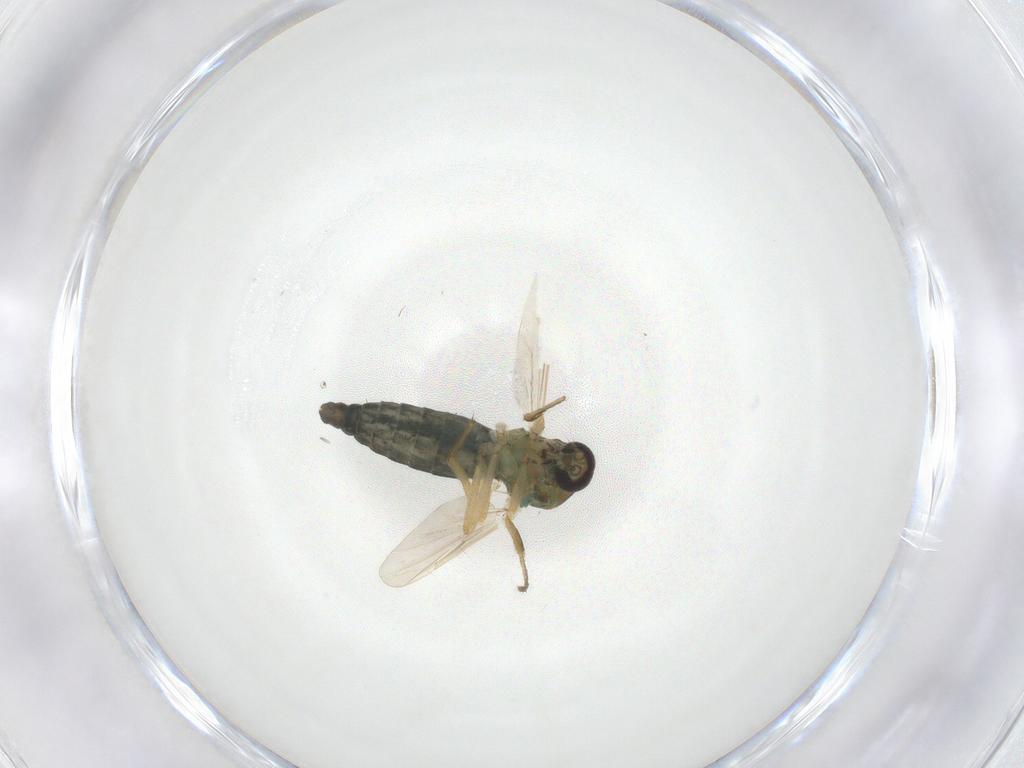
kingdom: Animalia
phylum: Arthropoda
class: Insecta
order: Diptera
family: Ceratopogonidae
